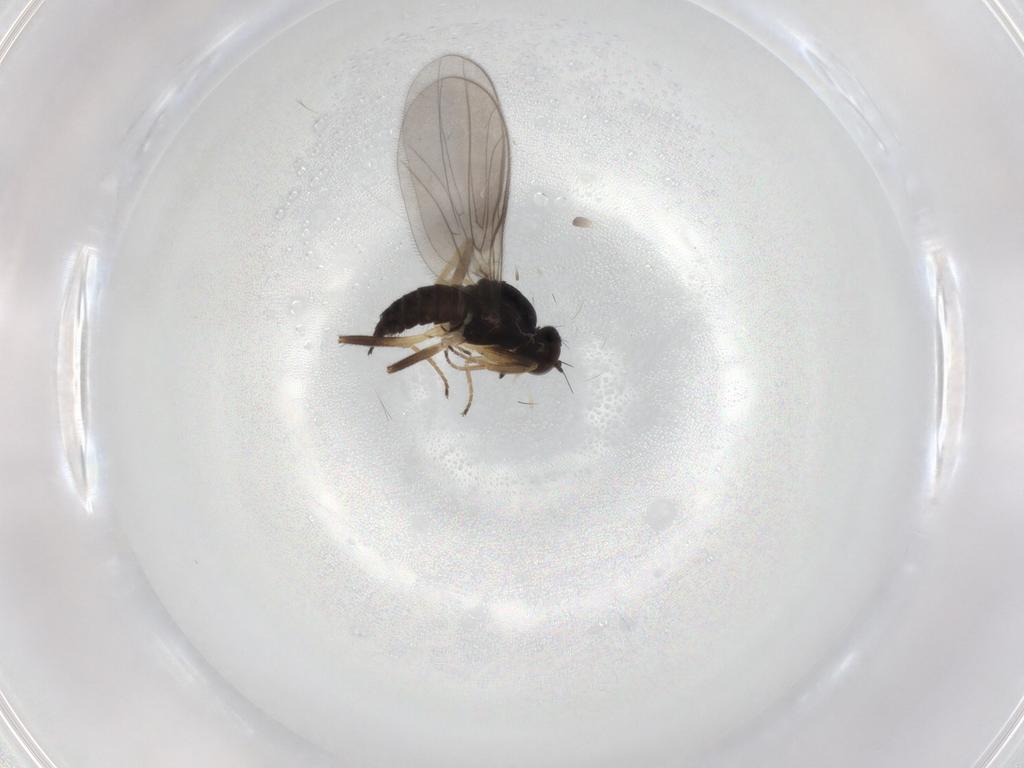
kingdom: Animalia
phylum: Arthropoda
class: Insecta
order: Diptera
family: Hybotidae
